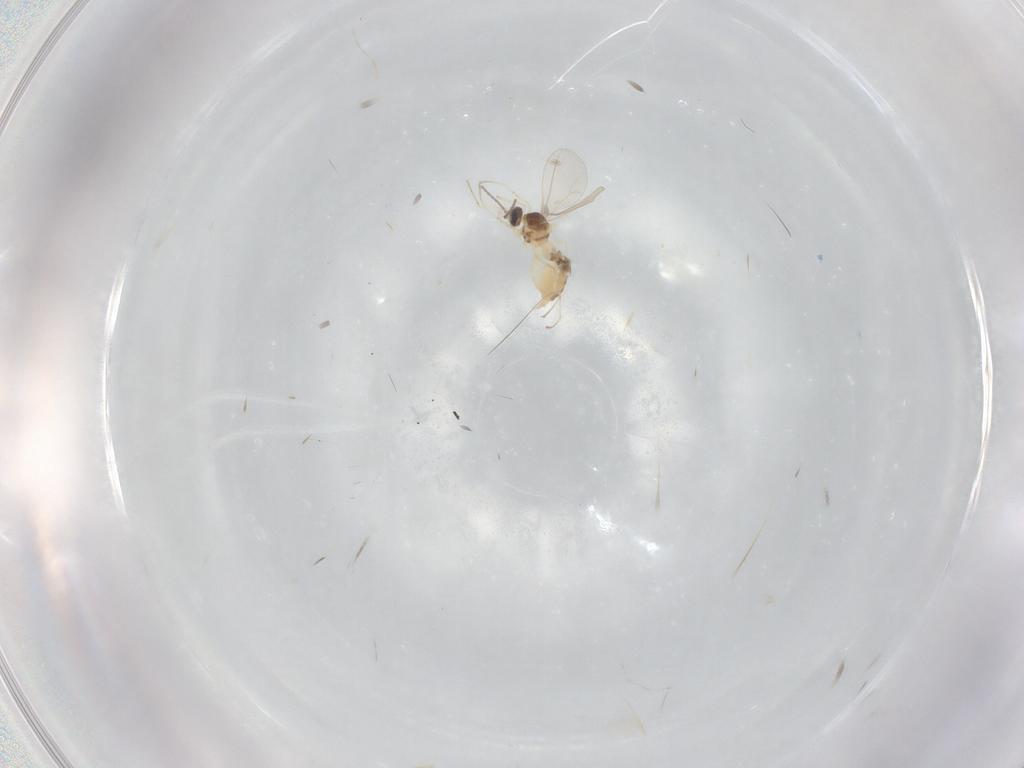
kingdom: Animalia
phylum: Arthropoda
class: Insecta
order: Diptera
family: Cecidomyiidae
